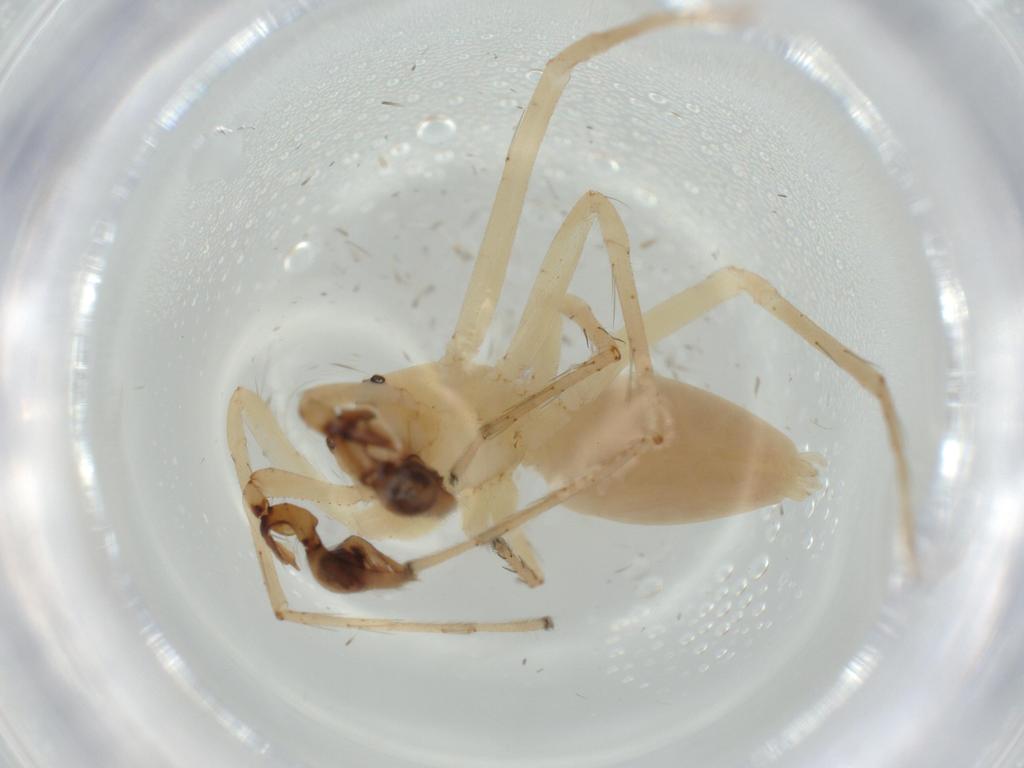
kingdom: Animalia
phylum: Arthropoda
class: Arachnida
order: Araneae
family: Anyphaenidae
